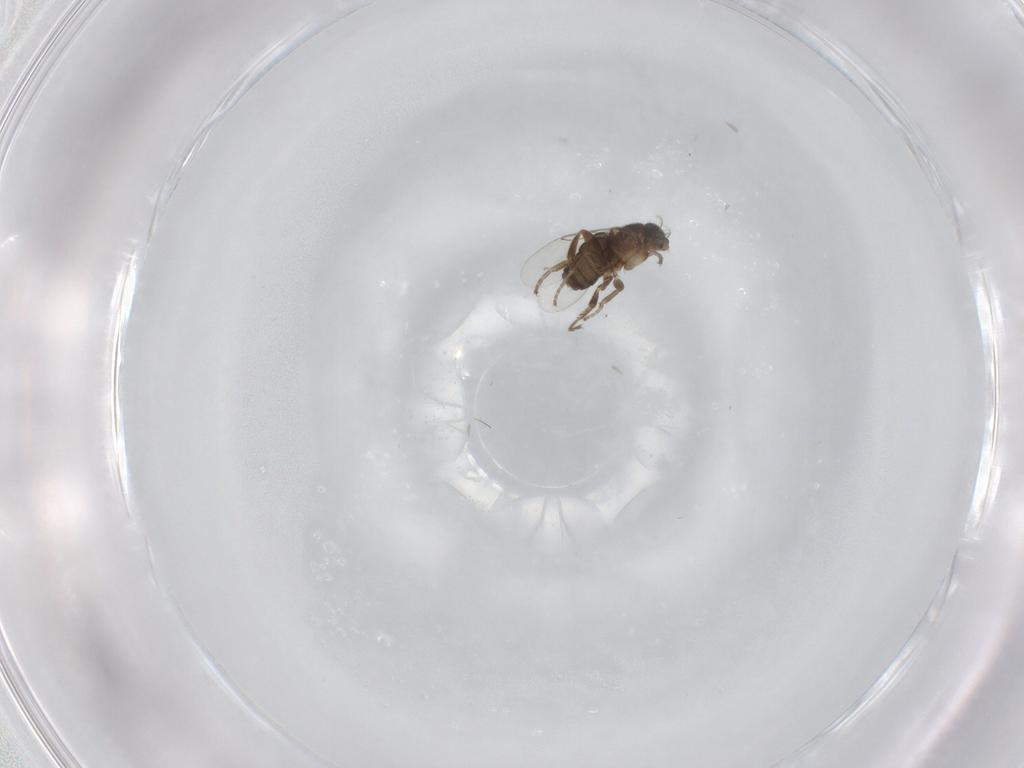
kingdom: Animalia
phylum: Arthropoda
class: Insecta
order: Diptera
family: Phoridae
